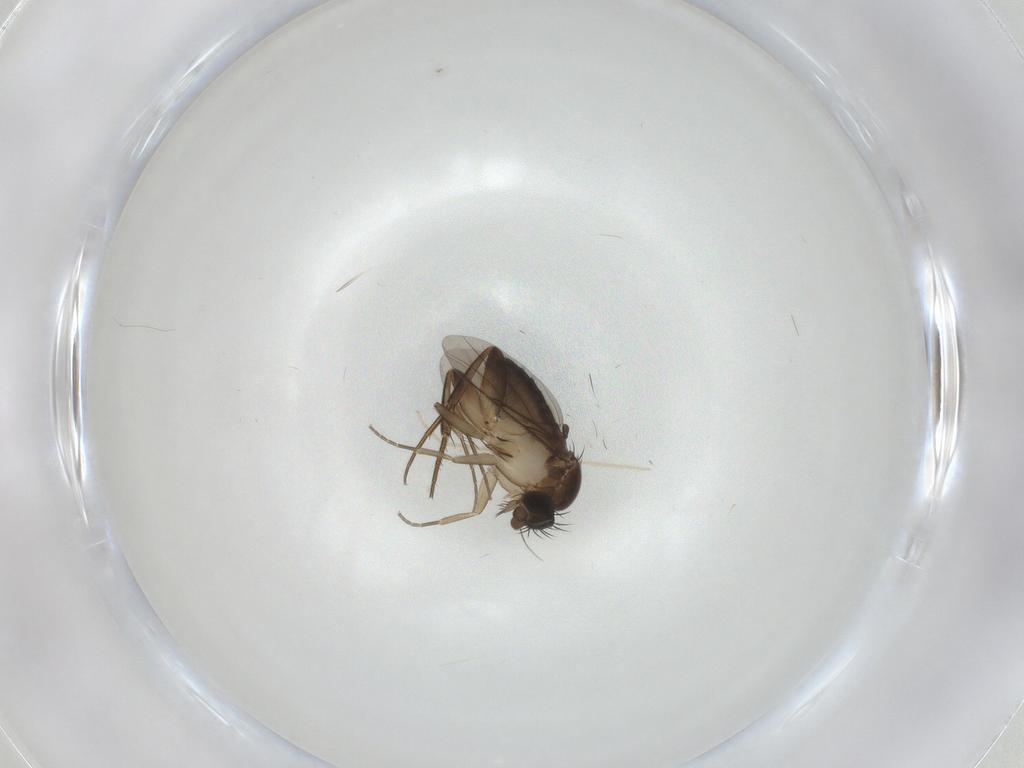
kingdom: Animalia
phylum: Arthropoda
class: Insecta
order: Diptera
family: Phoridae
